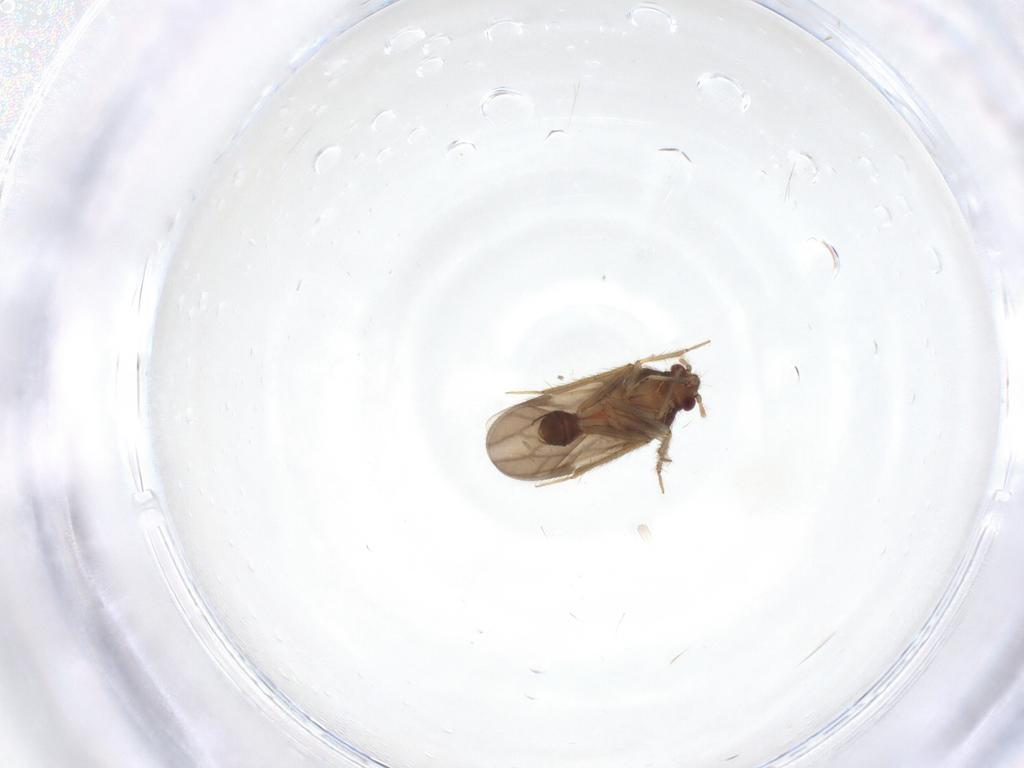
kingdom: Animalia
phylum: Arthropoda
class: Insecta
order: Hemiptera
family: Ceratocombidae
